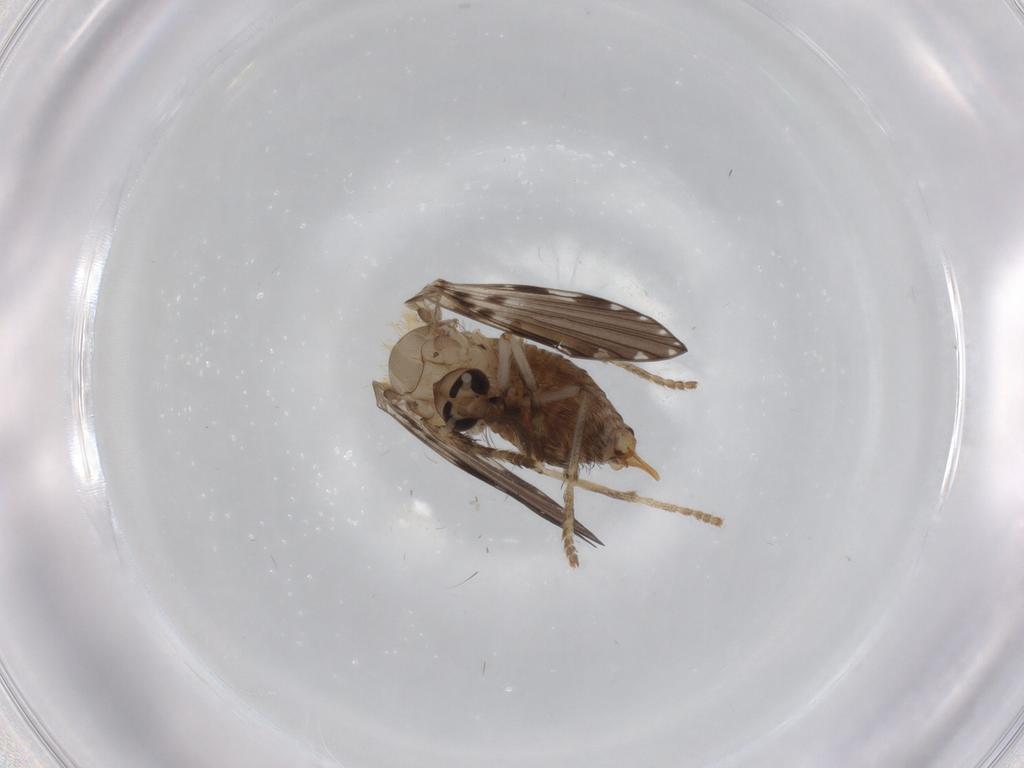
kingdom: Animalia
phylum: Arthropoda
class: Insecta
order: Diptera
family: Psychodidae
